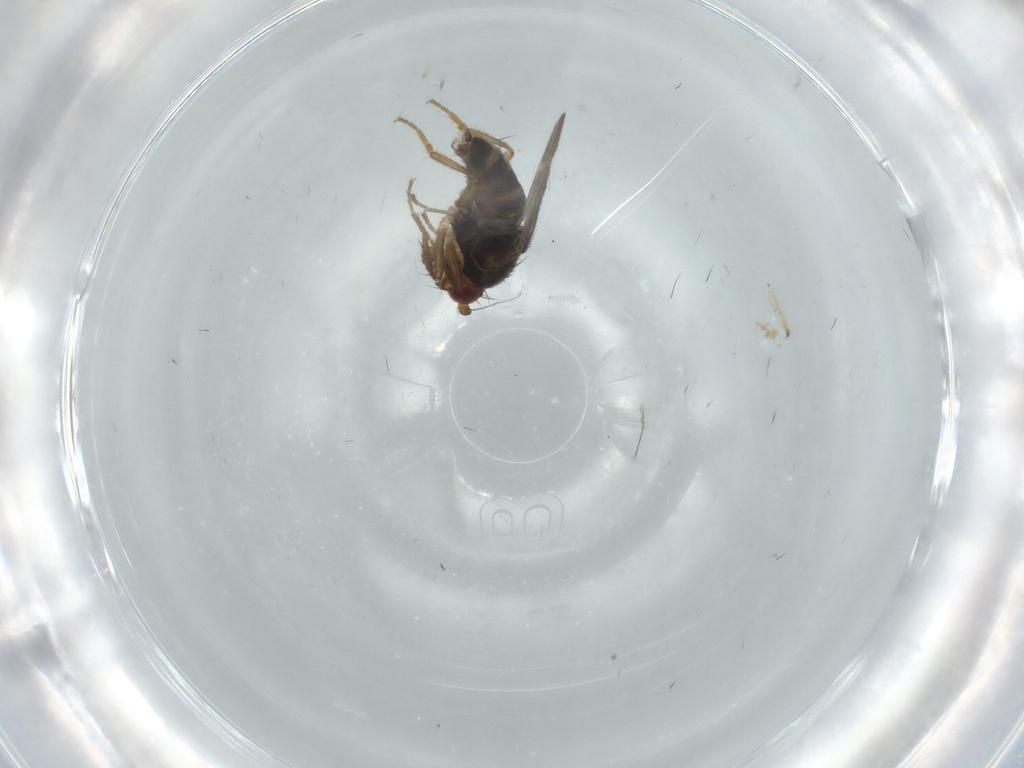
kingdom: Animalia
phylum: Arthropoda
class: Insecta
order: Diptera
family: Sphaeroceridae
